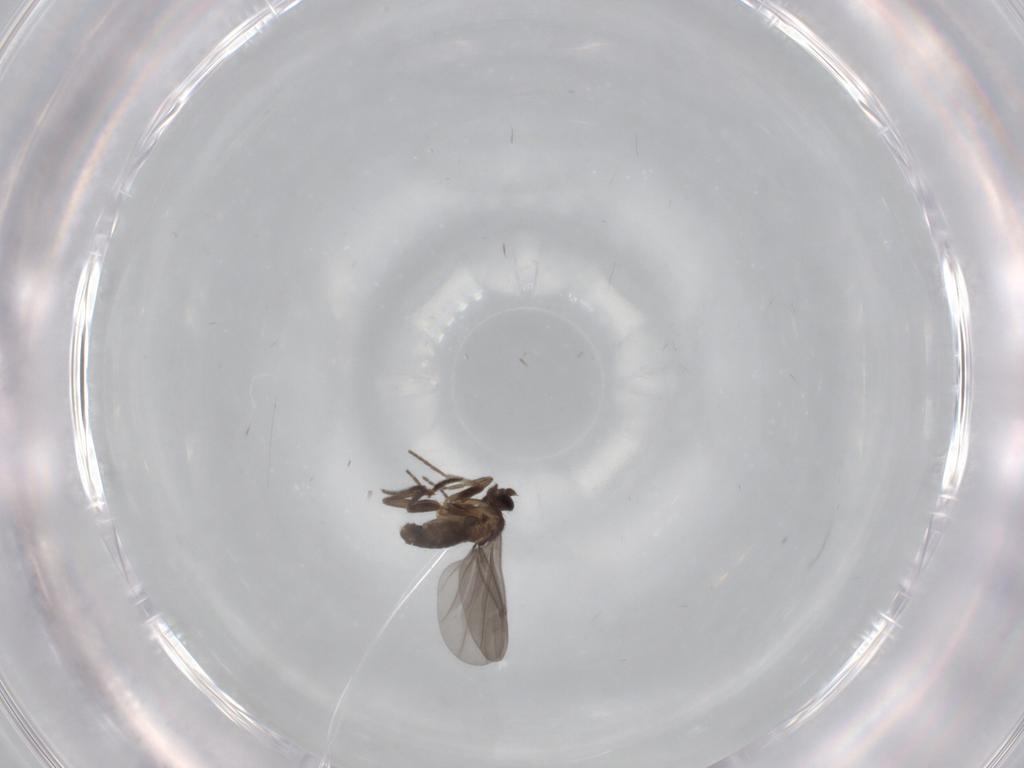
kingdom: Animalia
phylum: Arthropoda
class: Insecta
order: Diptera
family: Phoridae
